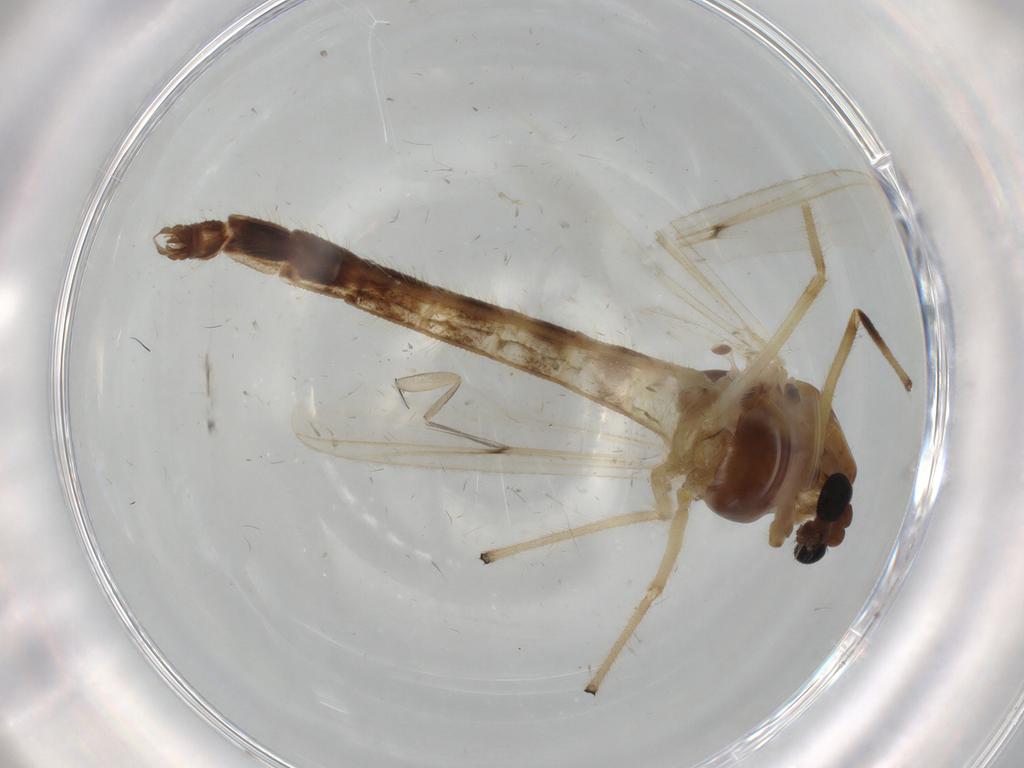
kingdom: Animalia
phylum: Arthropoda
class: Insecta
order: Diptera
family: Chironomidae
